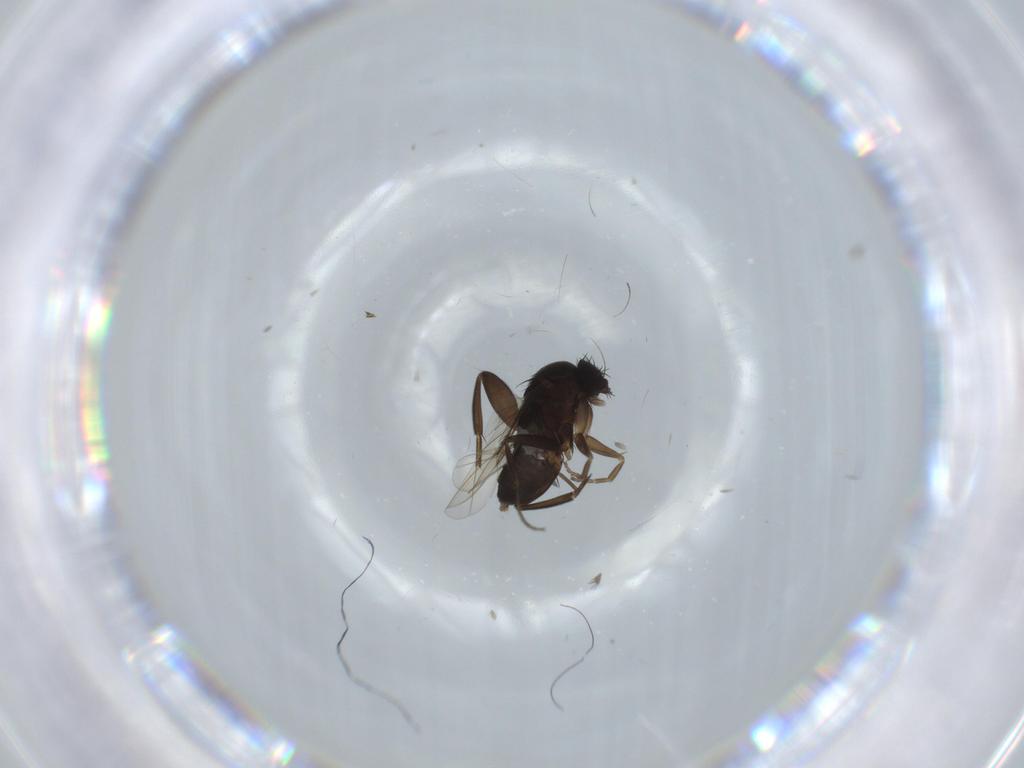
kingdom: Animalia
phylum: Arthropoda
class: Insecta
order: Diptera
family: Phoridae
